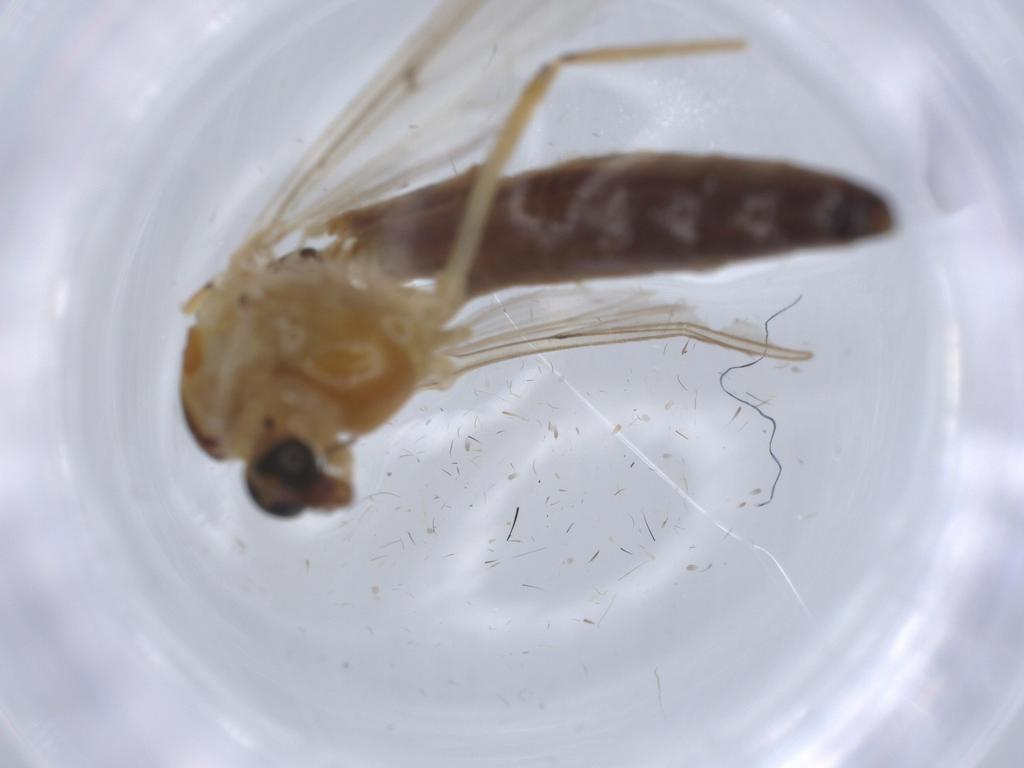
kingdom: Animalia
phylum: Arthropoda
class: Insecta
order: Diptera
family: Chironomidae
